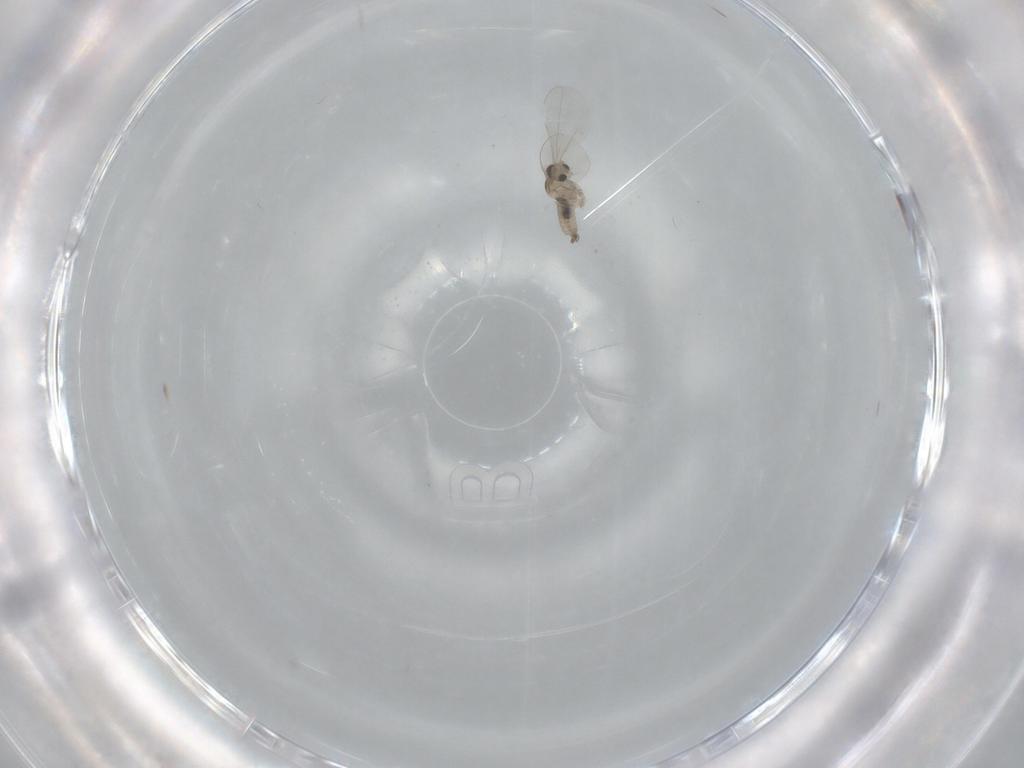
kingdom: Animalia
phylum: Arthropoda
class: Insecta
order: Diptera
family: Cecidomyiidae
